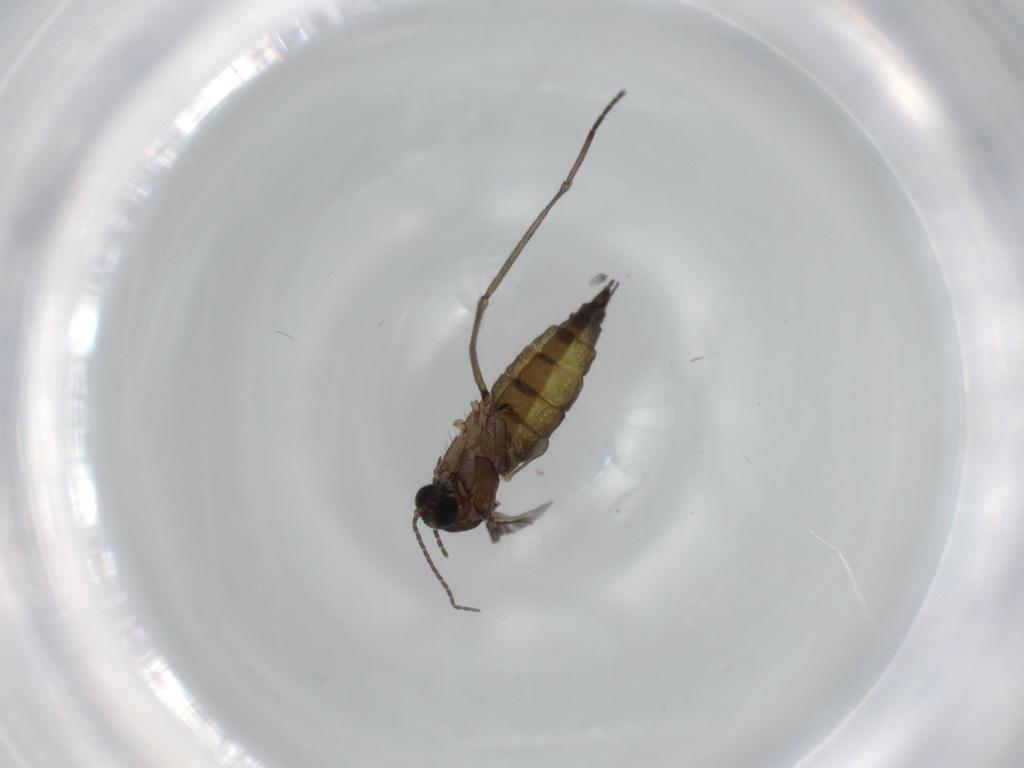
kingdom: Animalia
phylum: Arthropoda
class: Insecta
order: Diptera
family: Sciaridae
